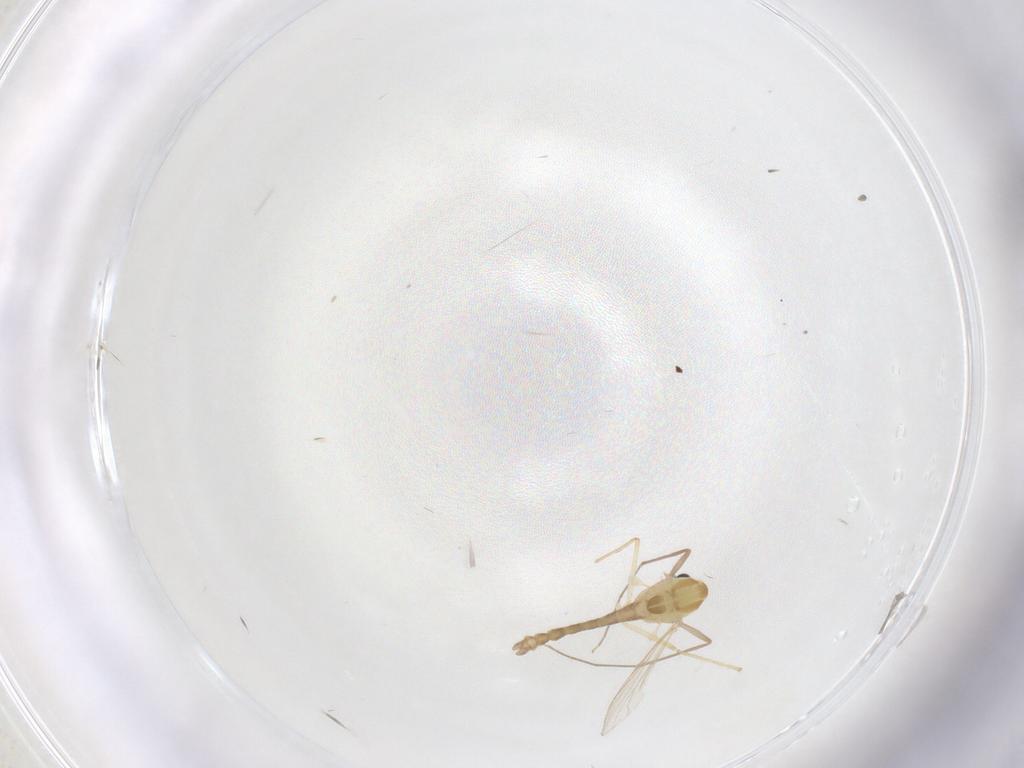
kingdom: Animalia
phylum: Arthropoda
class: Insecta
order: Diptera
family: Chironomidae
